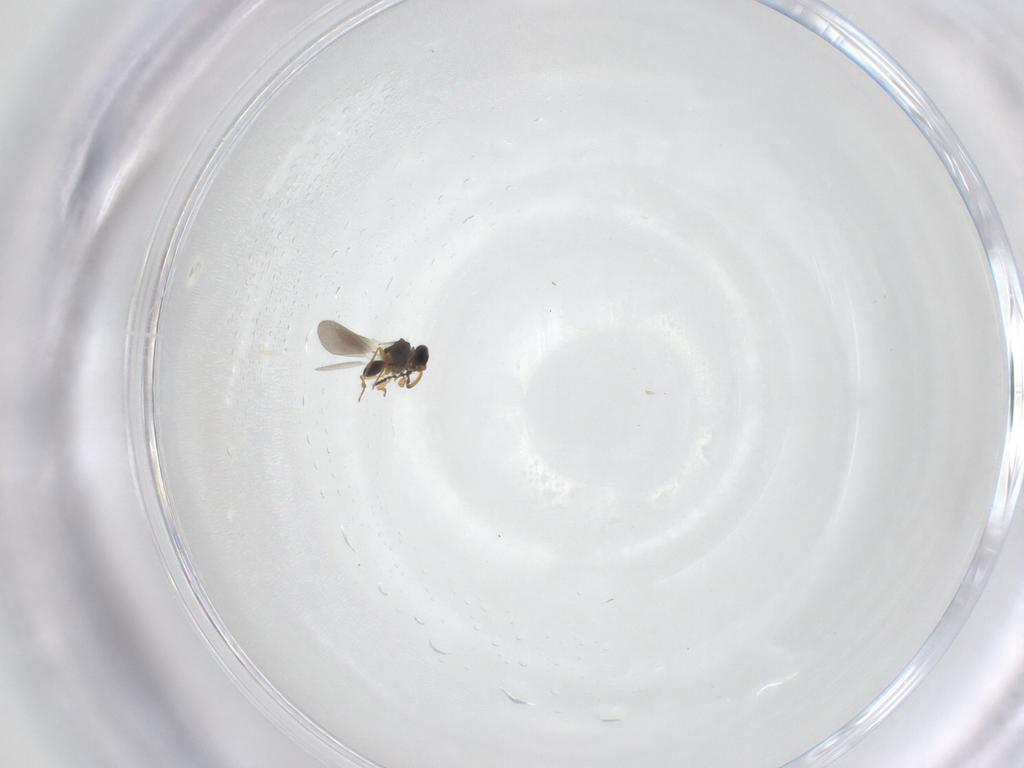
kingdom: Animalia
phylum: Arthropoda
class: Insecta
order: Hymenoptera
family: Platygastridae
